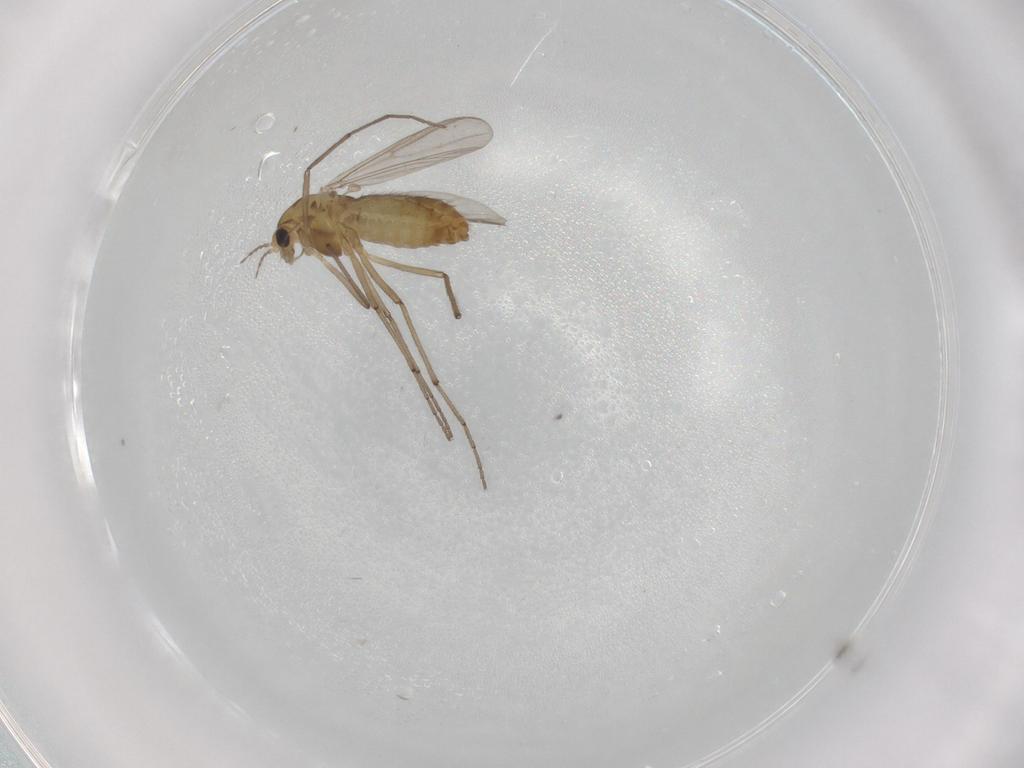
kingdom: Animalia
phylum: Arthropoda
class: Insecta
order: Diptera
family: Chironomidae
